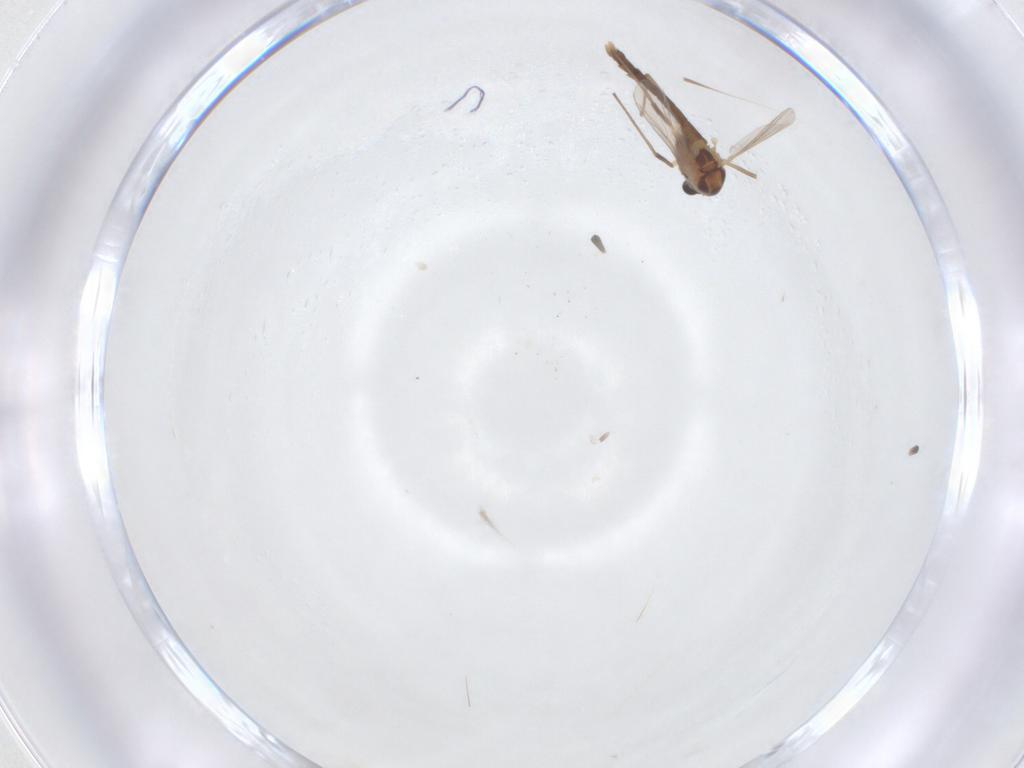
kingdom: Animalia
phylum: Arthropoda
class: Insecta
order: Diptera
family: Chironomidae
